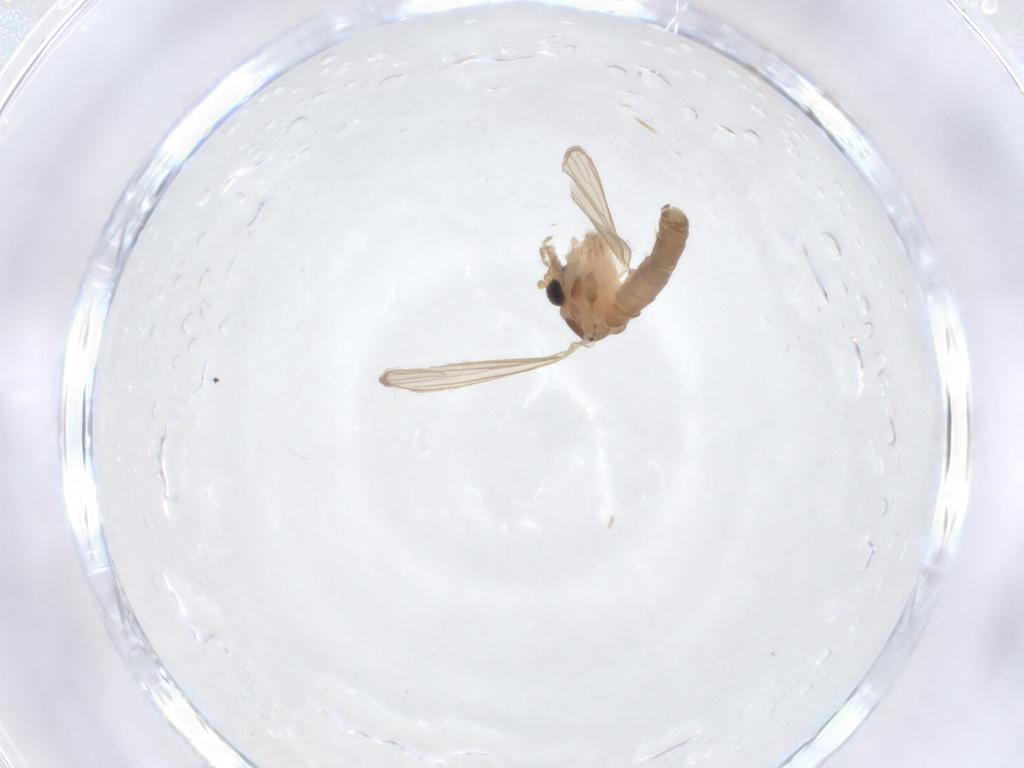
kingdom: Animalia
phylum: Arthropoda
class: Insecta
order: Diptera
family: Psychodidae
